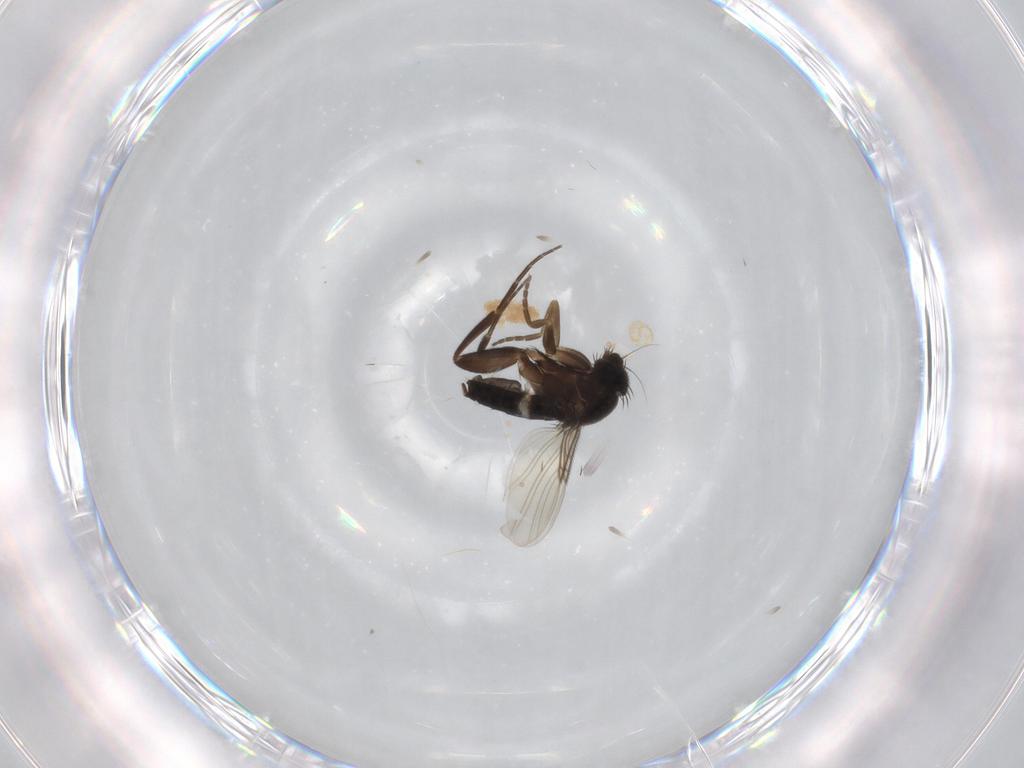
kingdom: Animalia
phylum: Arthropoda
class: Insecta
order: Diptera
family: Phoridae
